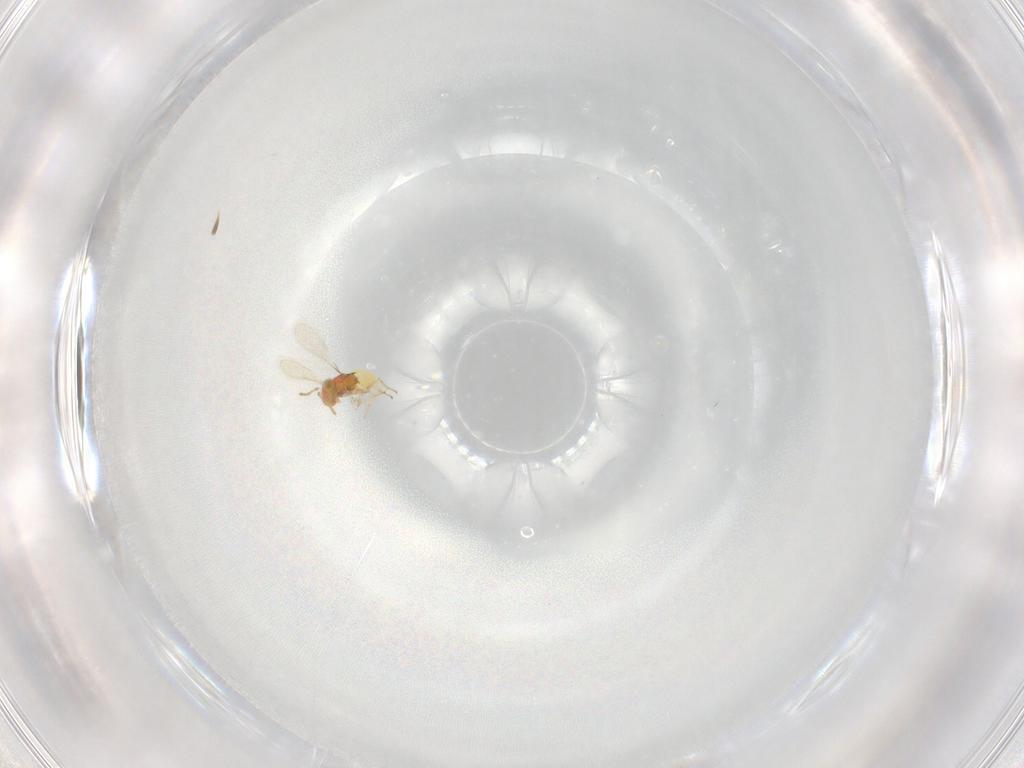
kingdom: Animalia
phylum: Arthropoda
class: Insecta
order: Hymenoptera
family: Aphelinidae
